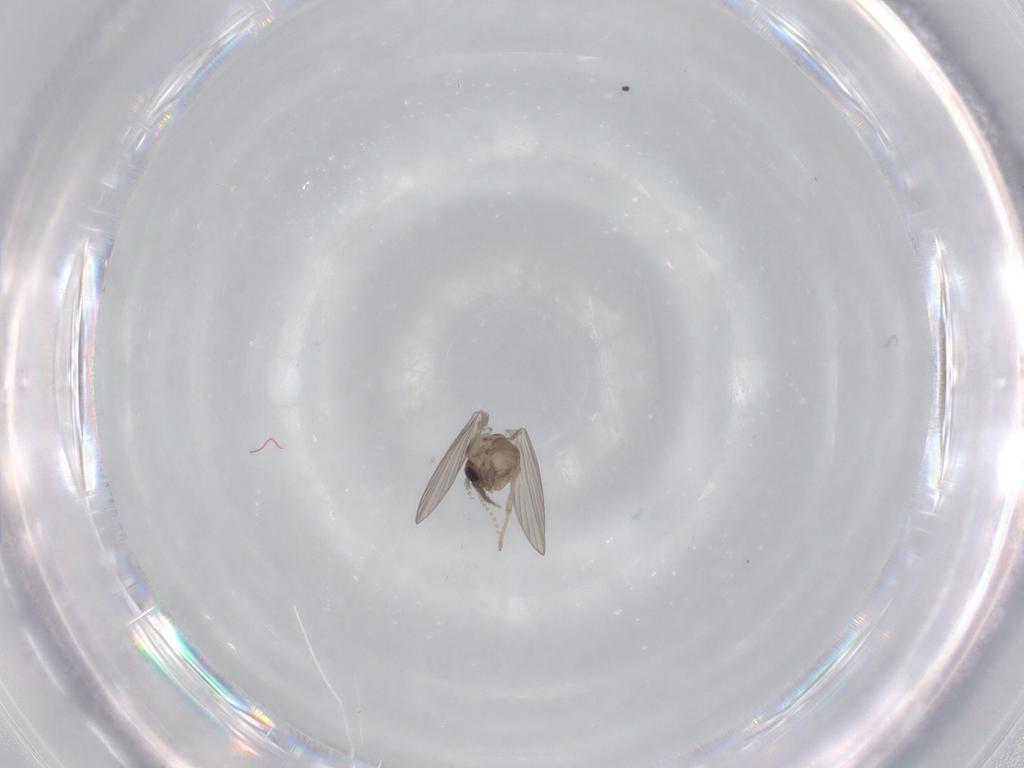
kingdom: Animalia
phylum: Arthropoda
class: Insecta
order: Diptera
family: Psychodidae
